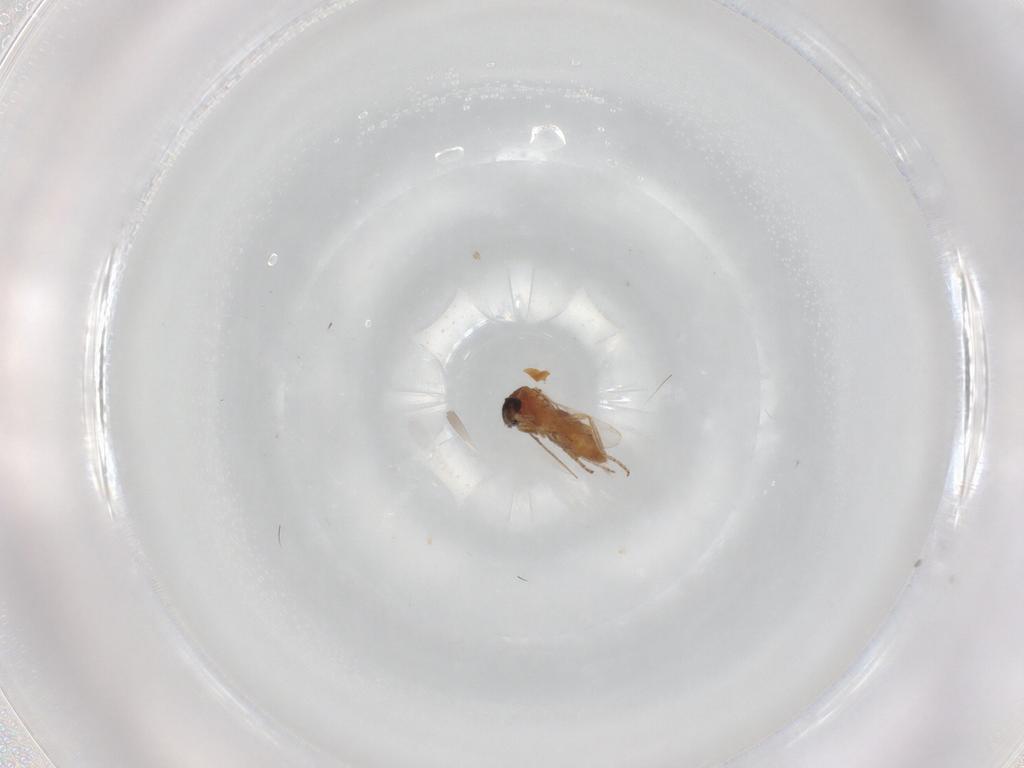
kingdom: Animalia
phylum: Arthropoda
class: Insecta
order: Diptera
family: Ceratopogonidae
